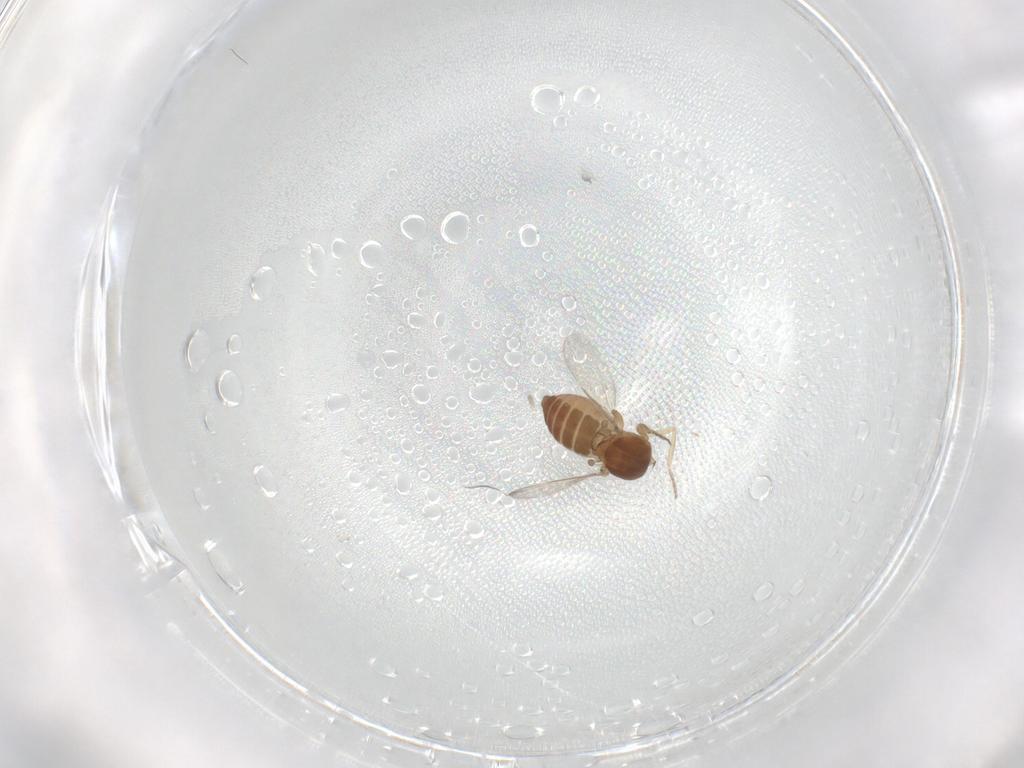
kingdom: Animalia
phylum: Arthropoda
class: Insecta
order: Diptera
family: Ceratopogonidae
